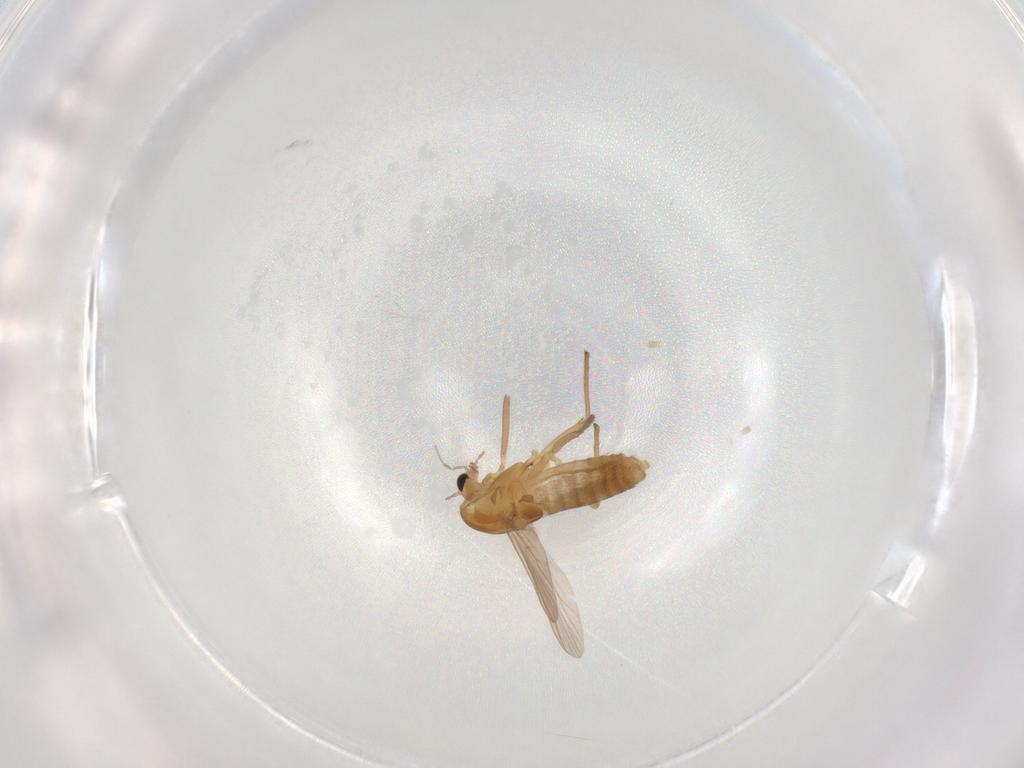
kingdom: Animalia
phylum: Arthropoda
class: Insecta
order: Diptera
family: Chironomidae
